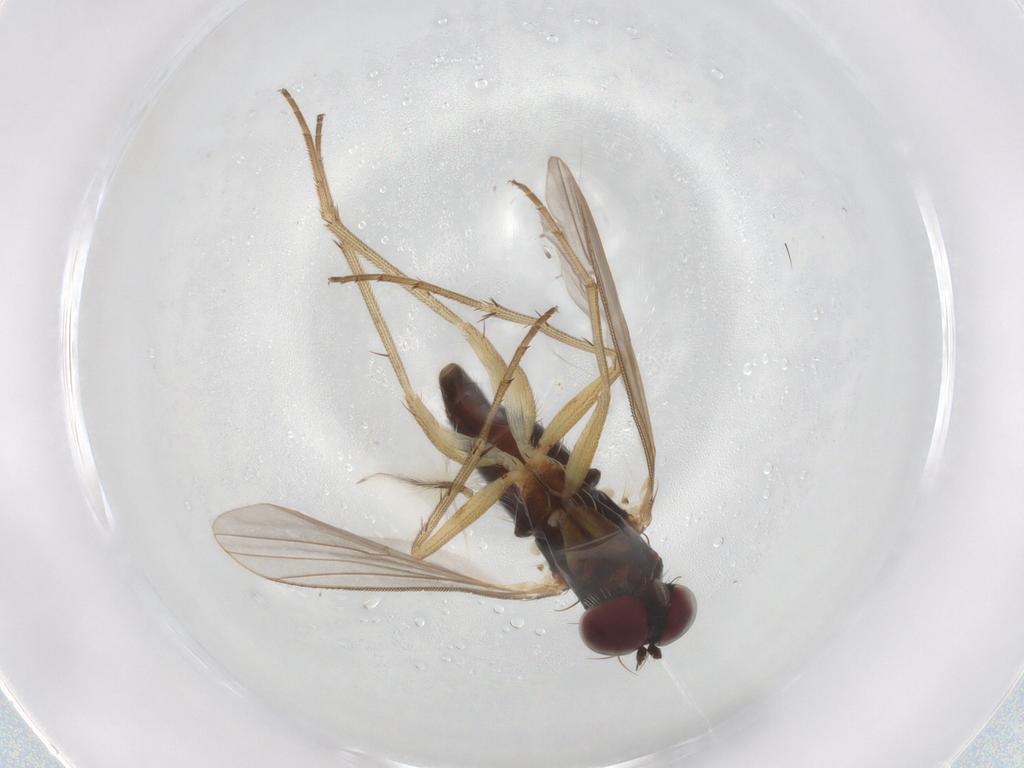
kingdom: Animalia
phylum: Arthropoda
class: Insecta
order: Diptera
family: Dolichopodidae
